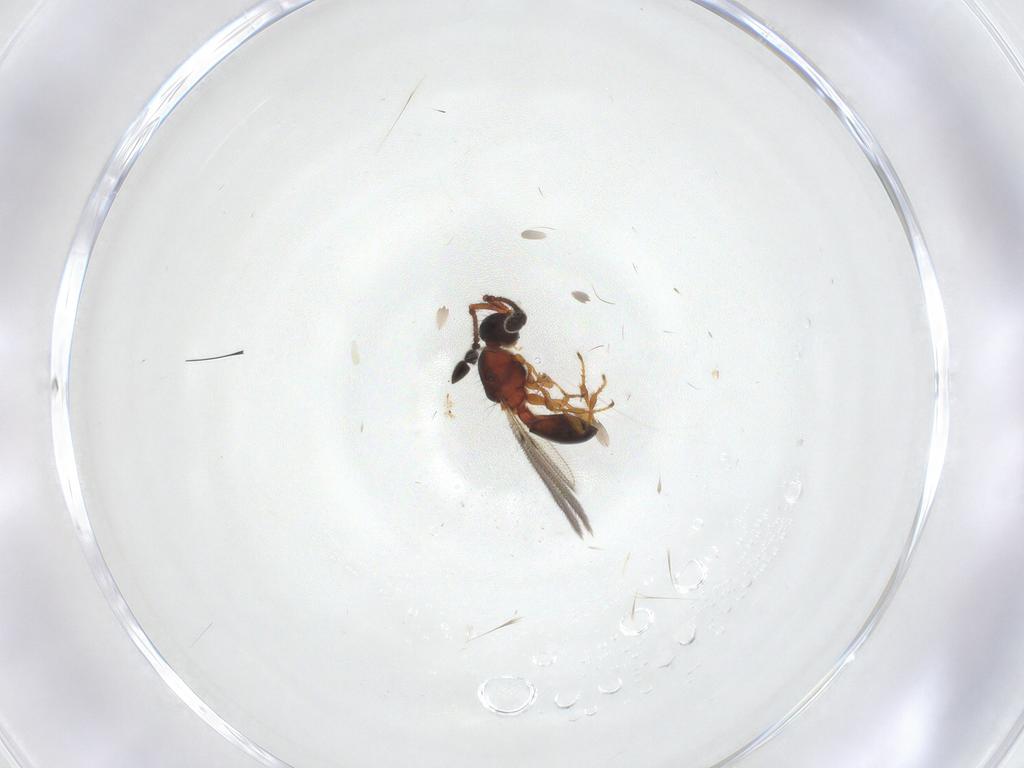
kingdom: Animalia
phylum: Arthropoda
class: Insecta
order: Hymenoptera
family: Diapriidae
